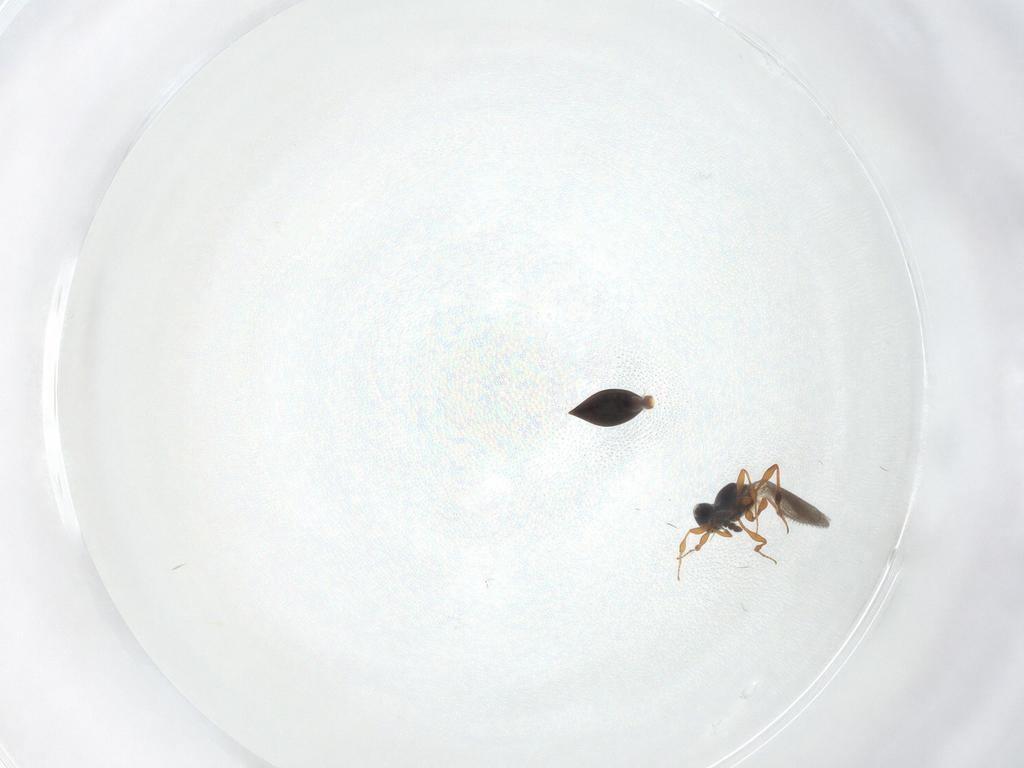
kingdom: Animalia
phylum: Arthropoda
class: Insecta
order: Hymenoptera
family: Platygastridae
